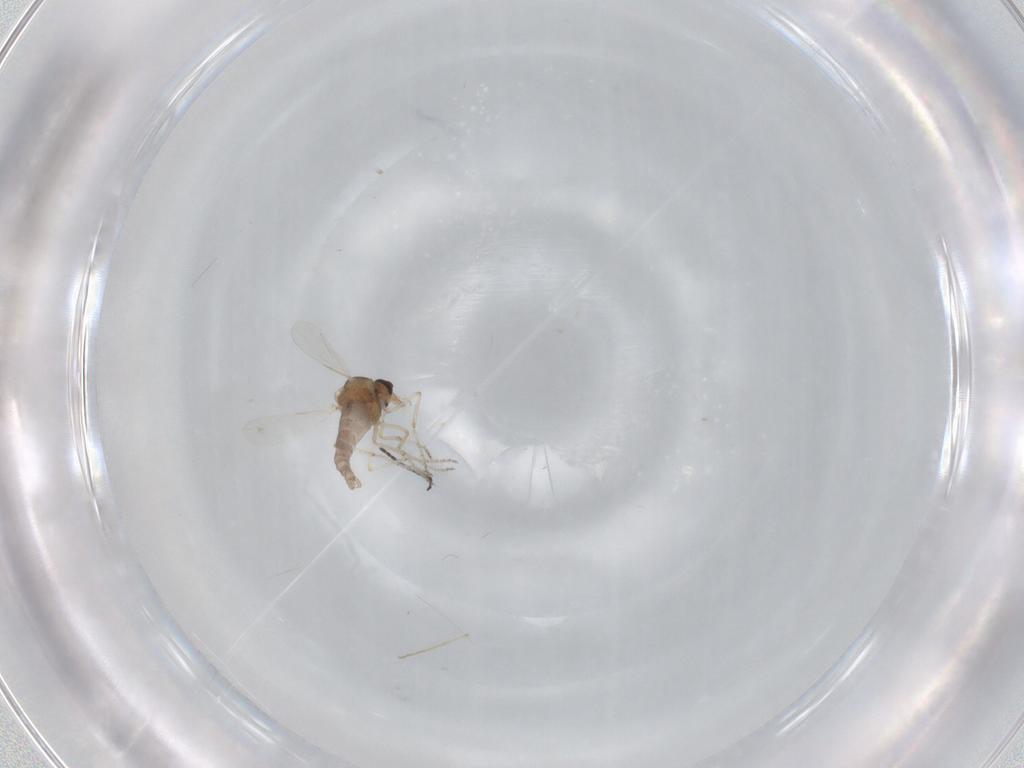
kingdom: Animalia
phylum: Arthropoda
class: Insecta
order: Diptera
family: Ceratopogonidae
